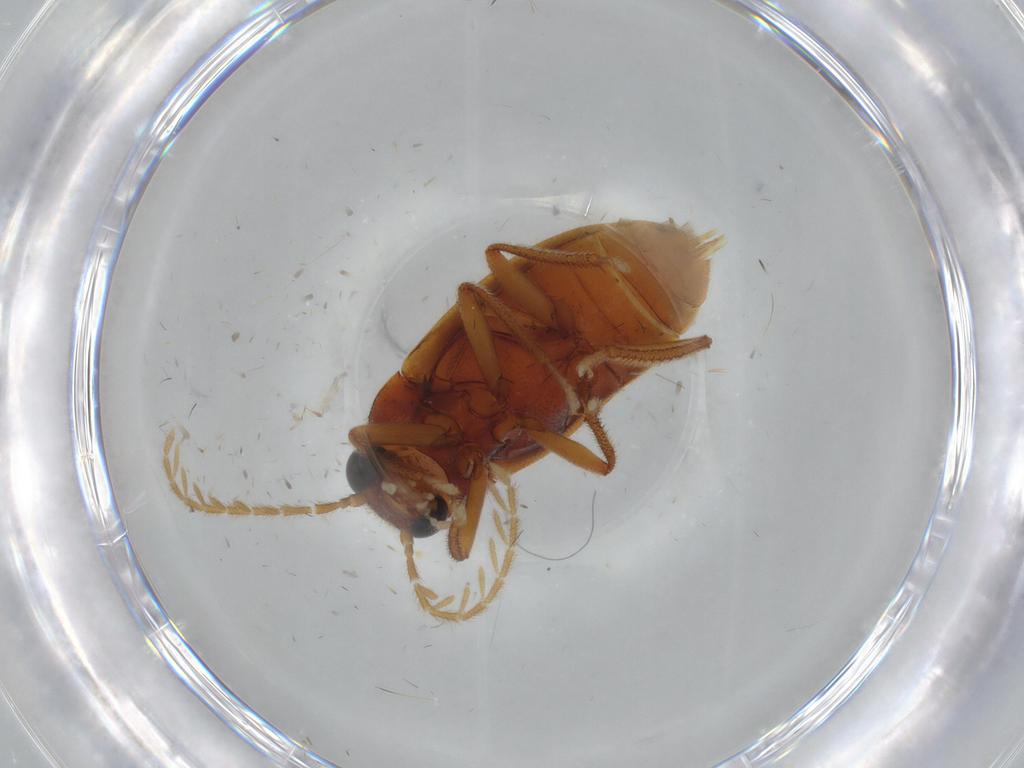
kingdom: Animalia
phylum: Arthropoda
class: Insecta
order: Coleoptera
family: Ptilodactylidae
